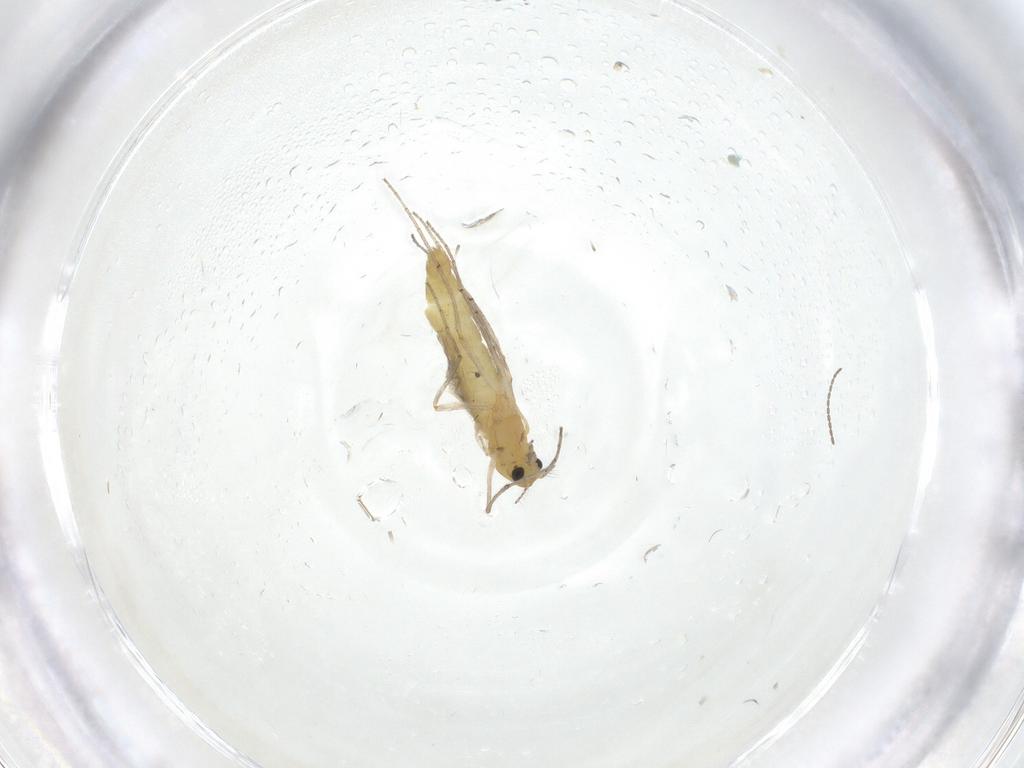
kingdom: Animalia
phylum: Arthropoda
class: Insecta
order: Diptera
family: Chironomidae
